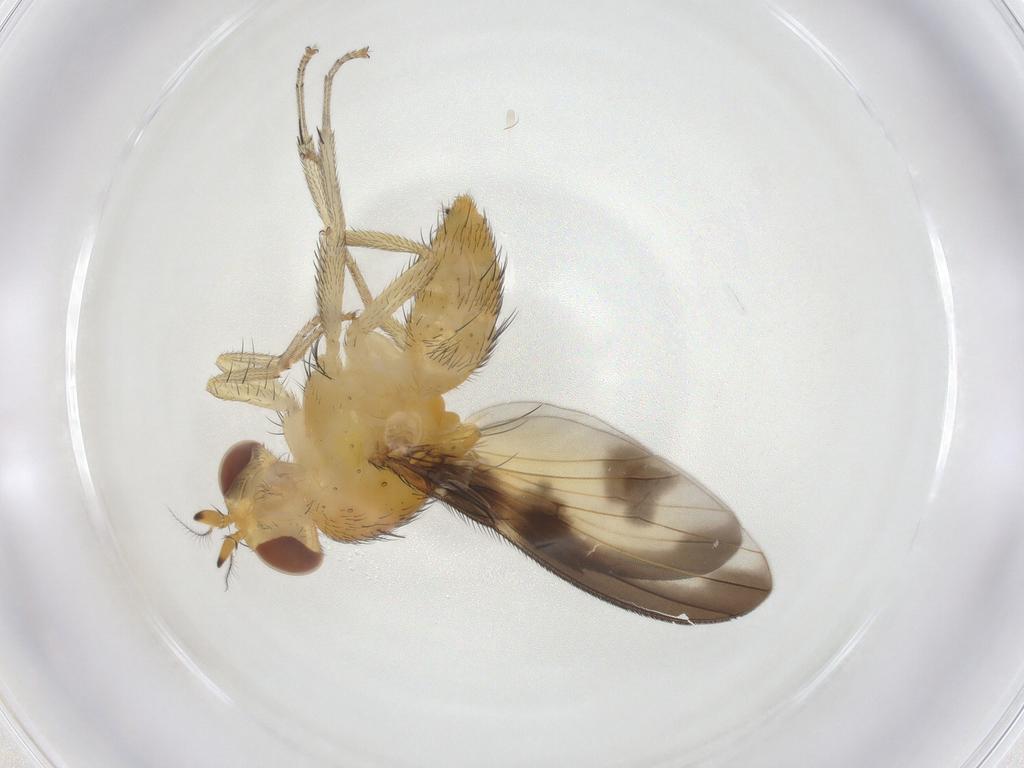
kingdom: Animalia
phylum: Arthropoda
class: Insecta
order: Diptera
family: Lauxaniidae
